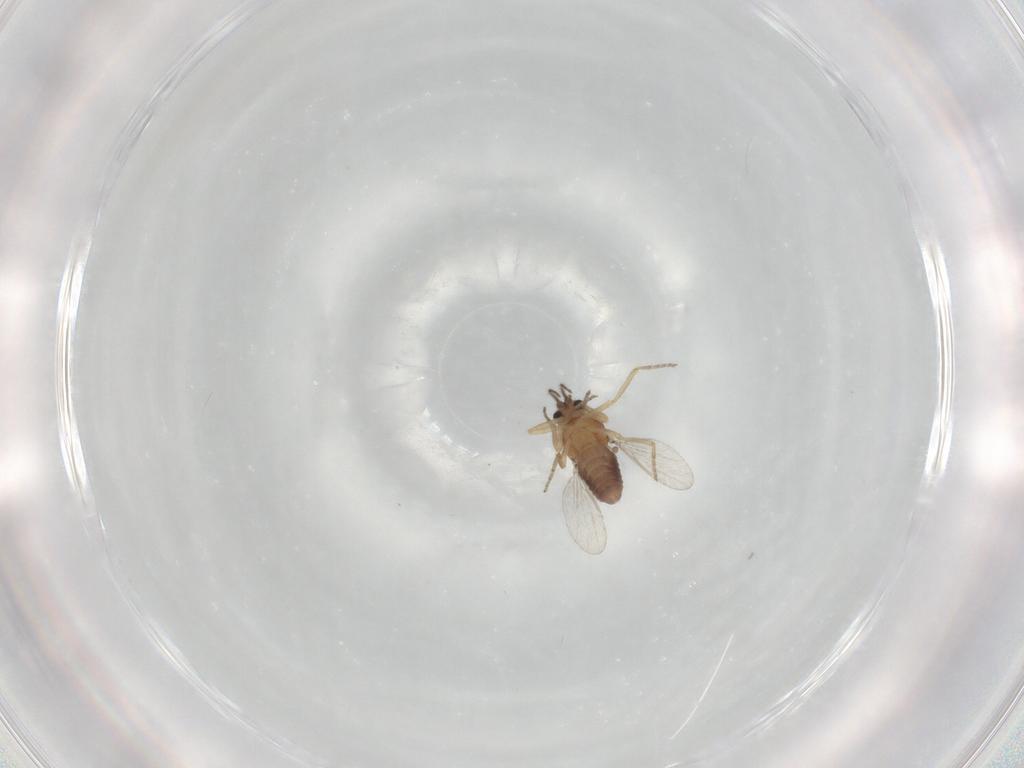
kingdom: Animalia
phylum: Arthropoda
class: Insecta
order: Diptera
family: Ceratopogonidae
